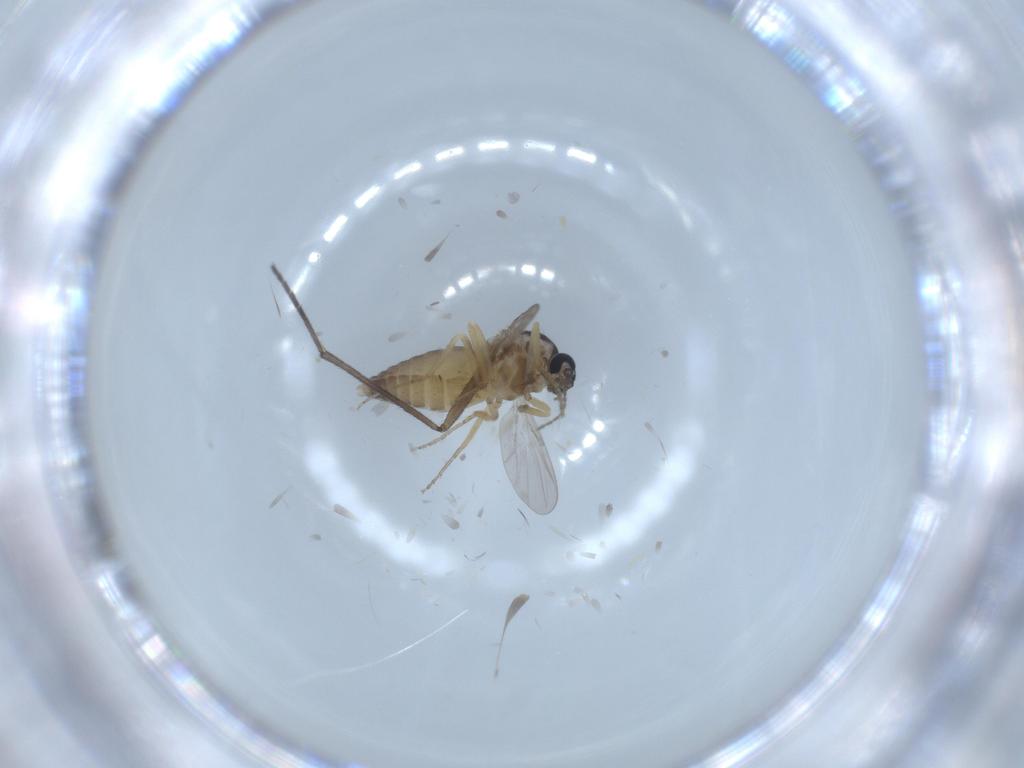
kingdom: Animalia
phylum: Arthropoda
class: Insecta
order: Diptera
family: Ceratopogonidae
